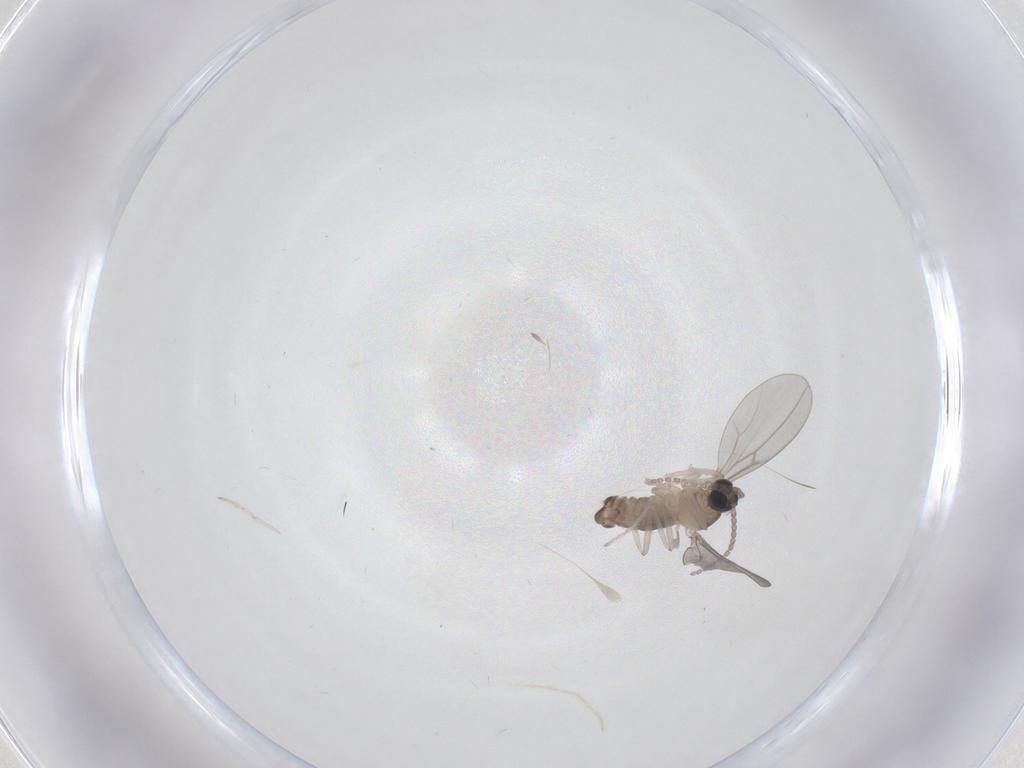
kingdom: Animalia
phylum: Arthropoda
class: Insecta
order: Diptera
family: Cecidomyiidae
